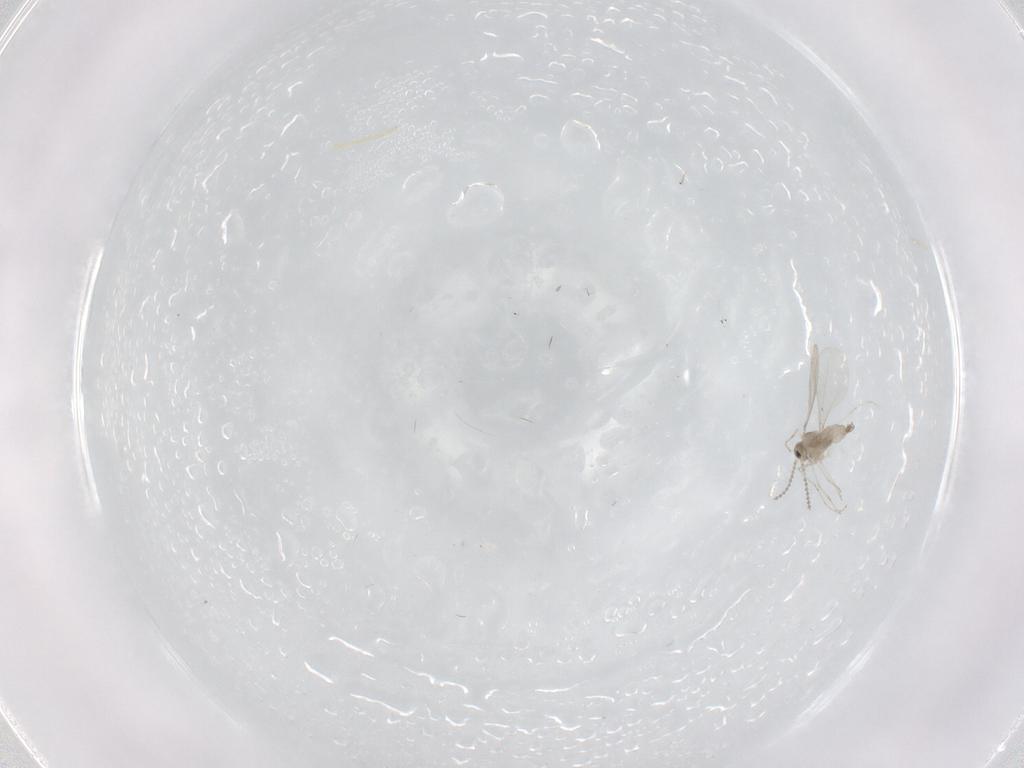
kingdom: Animalia
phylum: Arthropoda
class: Insecta
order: Diptera
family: Cecidomyiidae
